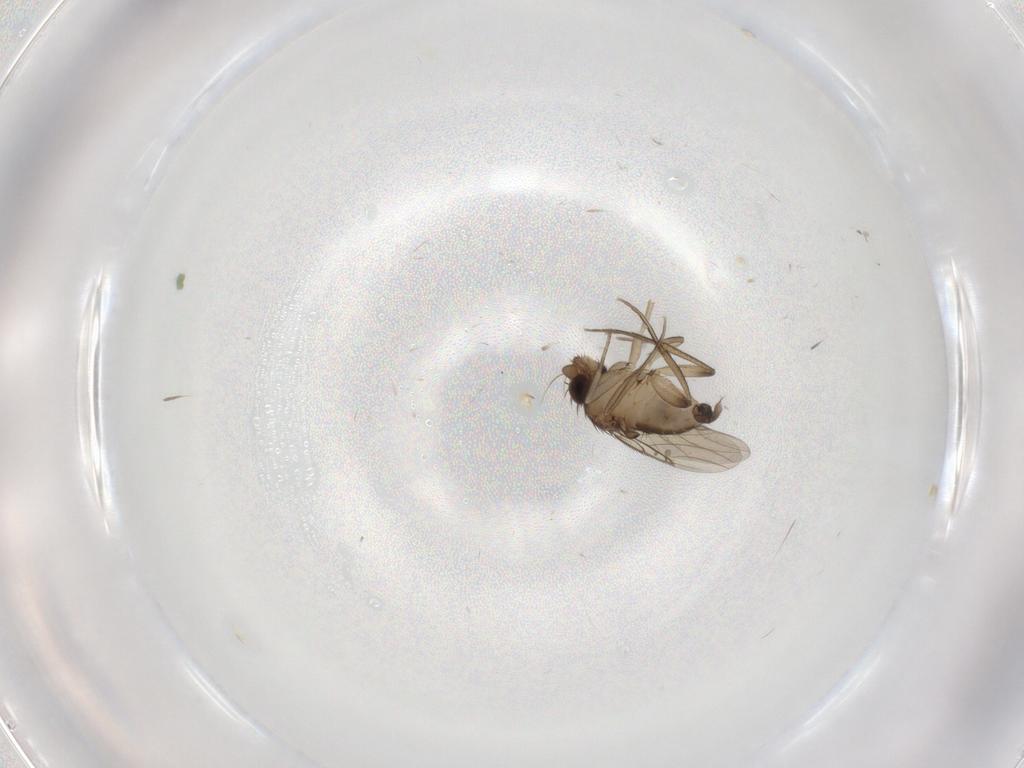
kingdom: Animalia
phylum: Arthropoda
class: Insecta
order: Diptera
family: Phoridae
